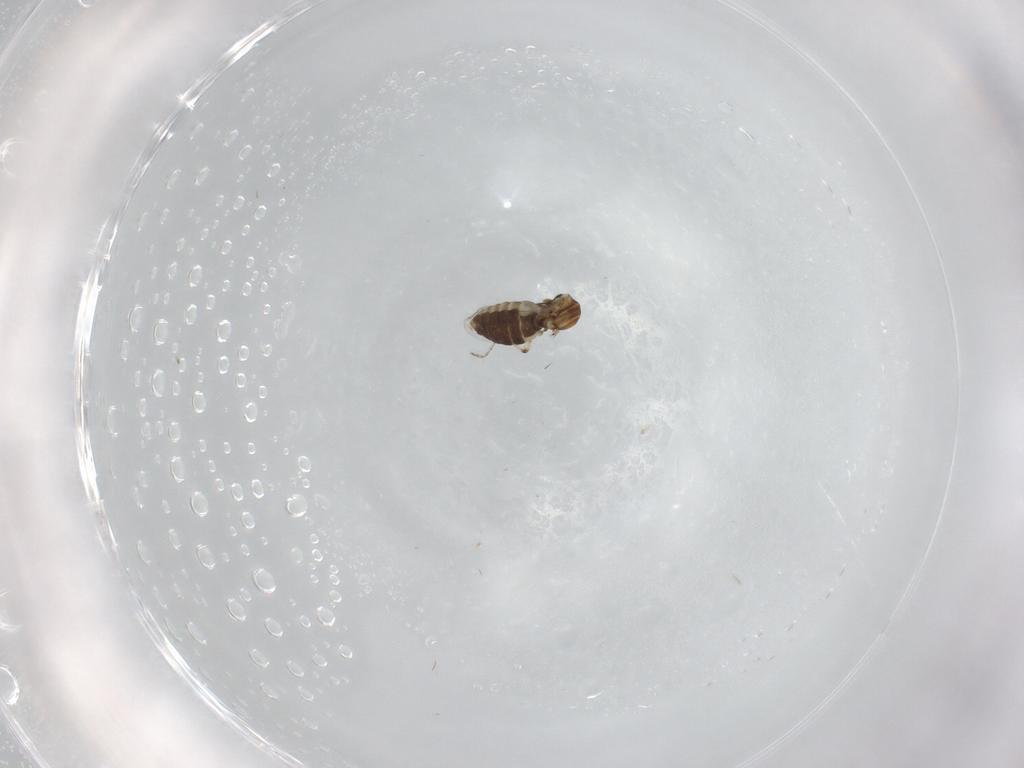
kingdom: Animalia
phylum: Arthropoda
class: Insecta
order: Diptera
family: Ceratopogonidae
